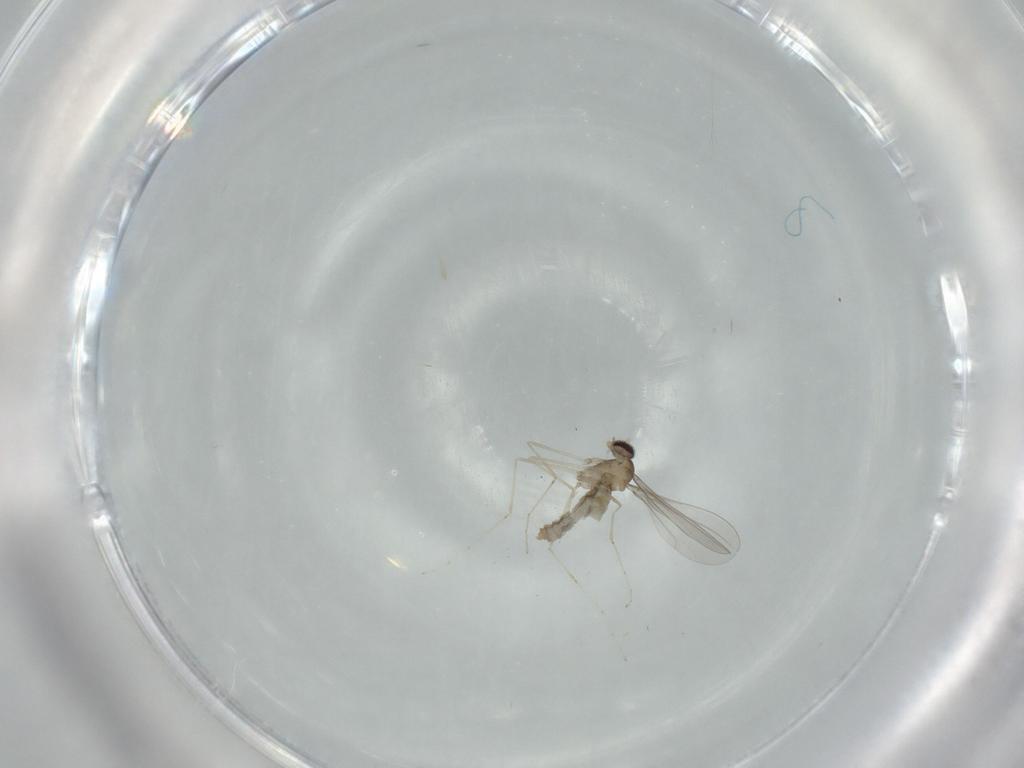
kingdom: Animalia
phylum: Arthropoda
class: Insecta
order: Diptera
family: Cecidomyiidae
